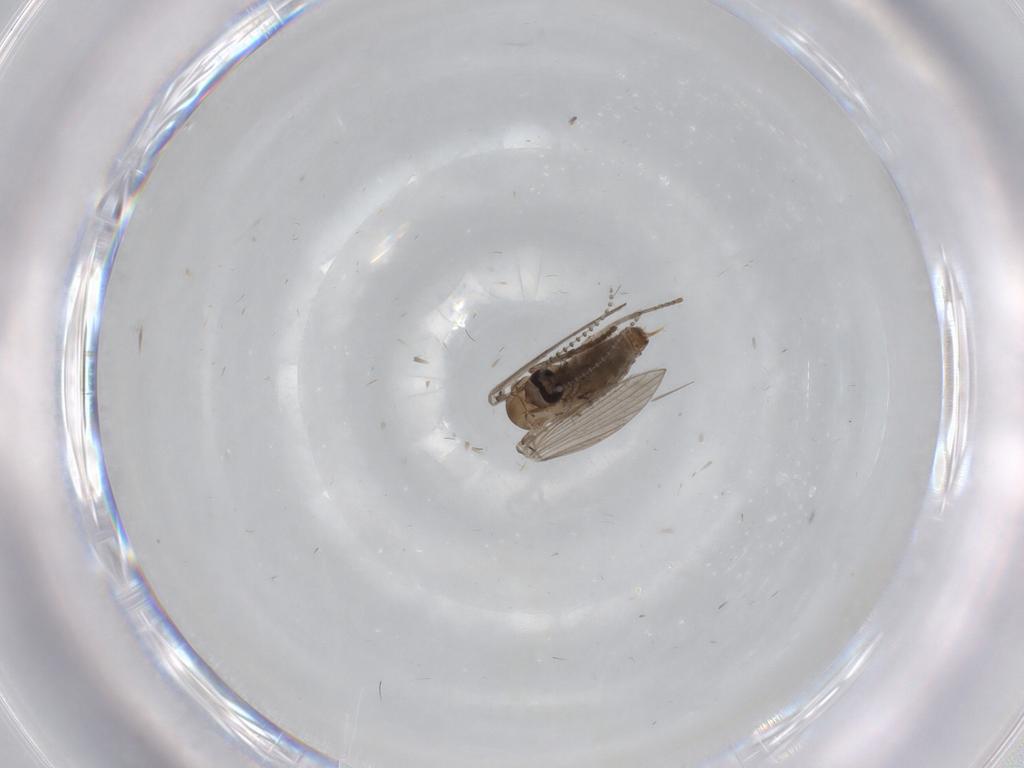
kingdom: Animalia
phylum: Arthropoda
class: Insecta
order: Diptera
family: Psychodidae
